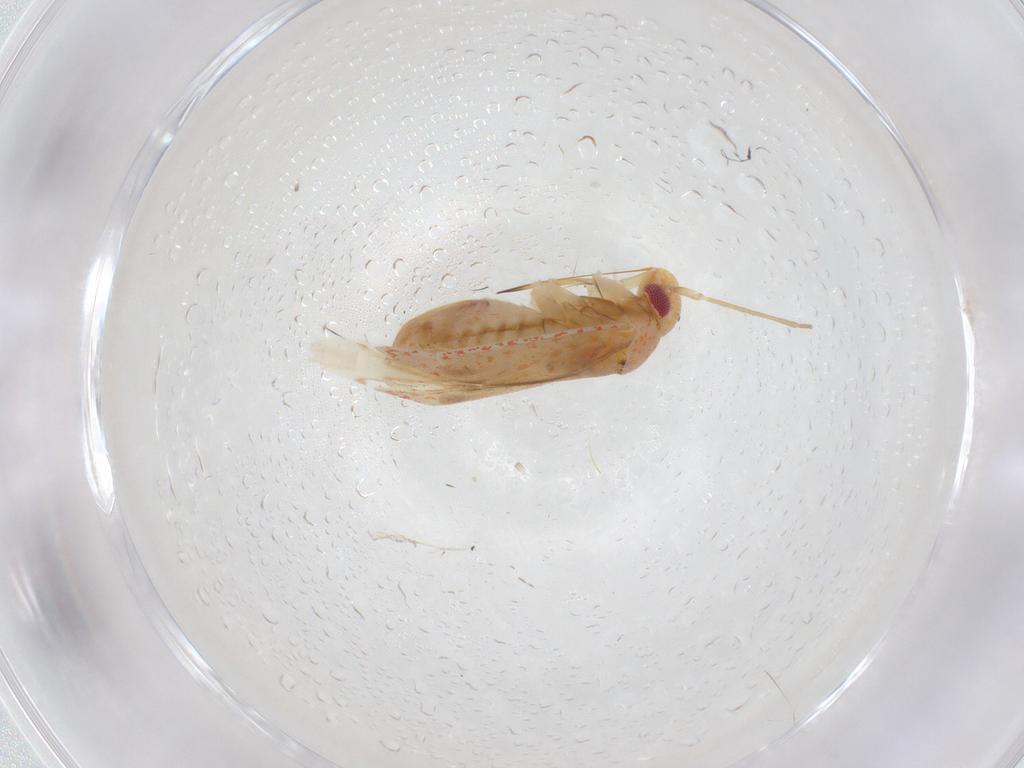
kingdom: Animalia
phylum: Arthropoda
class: Insecta
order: Hemiptera
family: Miridae
